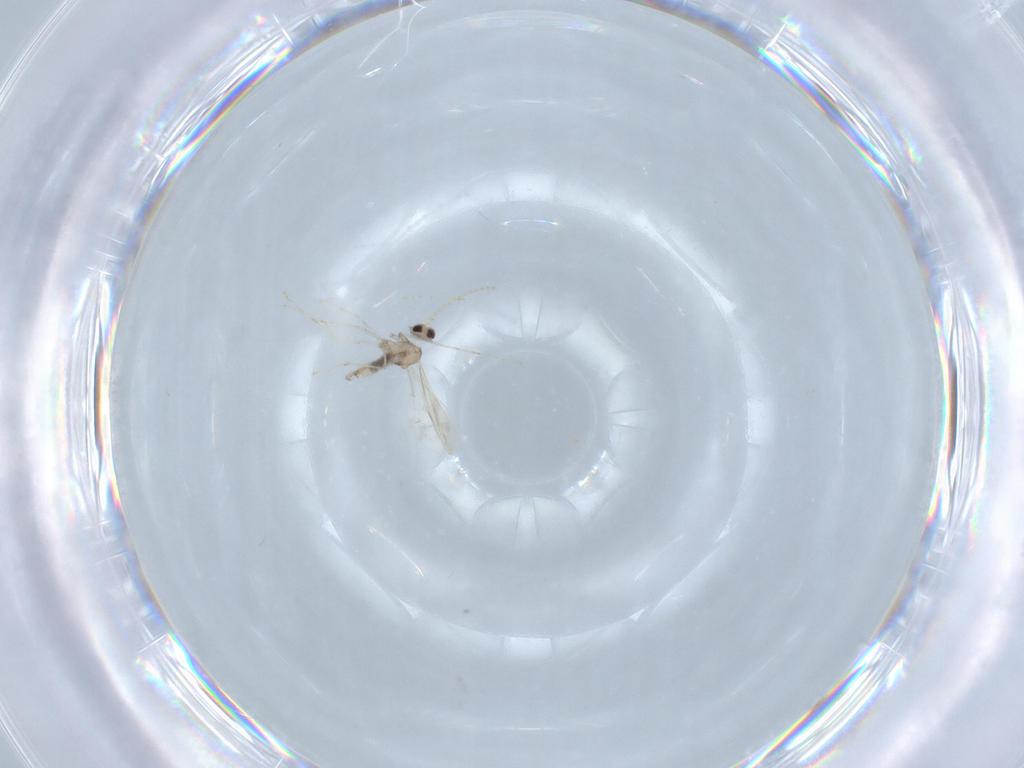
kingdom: Animalia
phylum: Arthropoda
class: Insecta
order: Diptera
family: Cecidomyiidae
